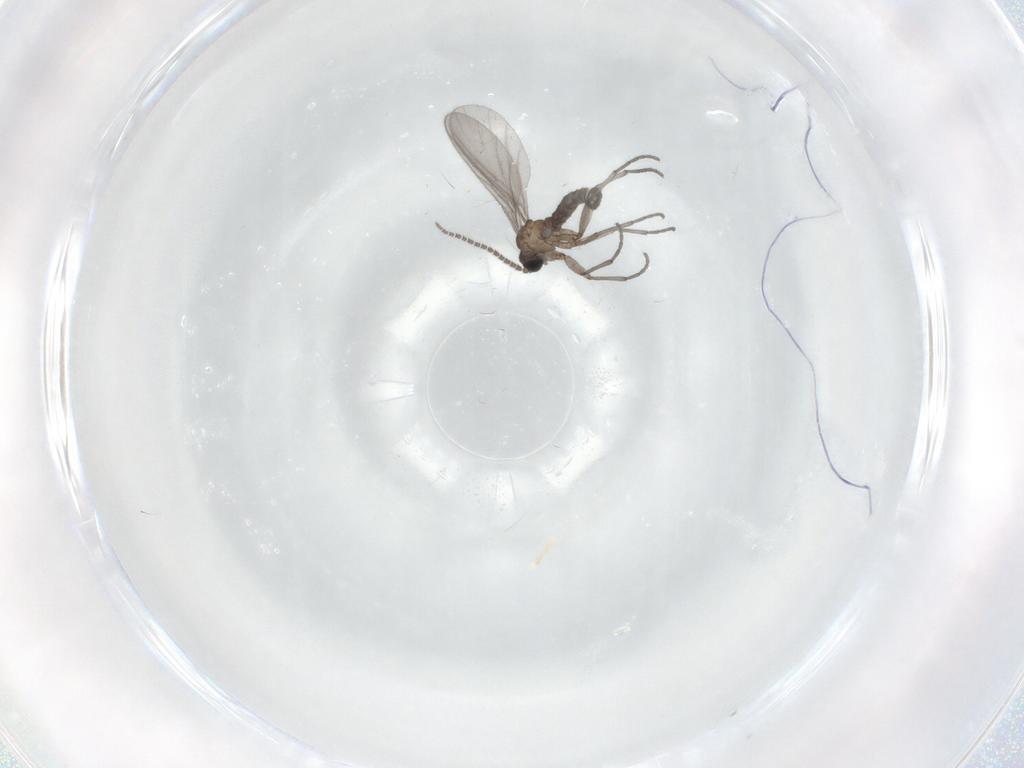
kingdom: Animalia
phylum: Arthropoda
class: Insecta
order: Diptera
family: Sciaridae
